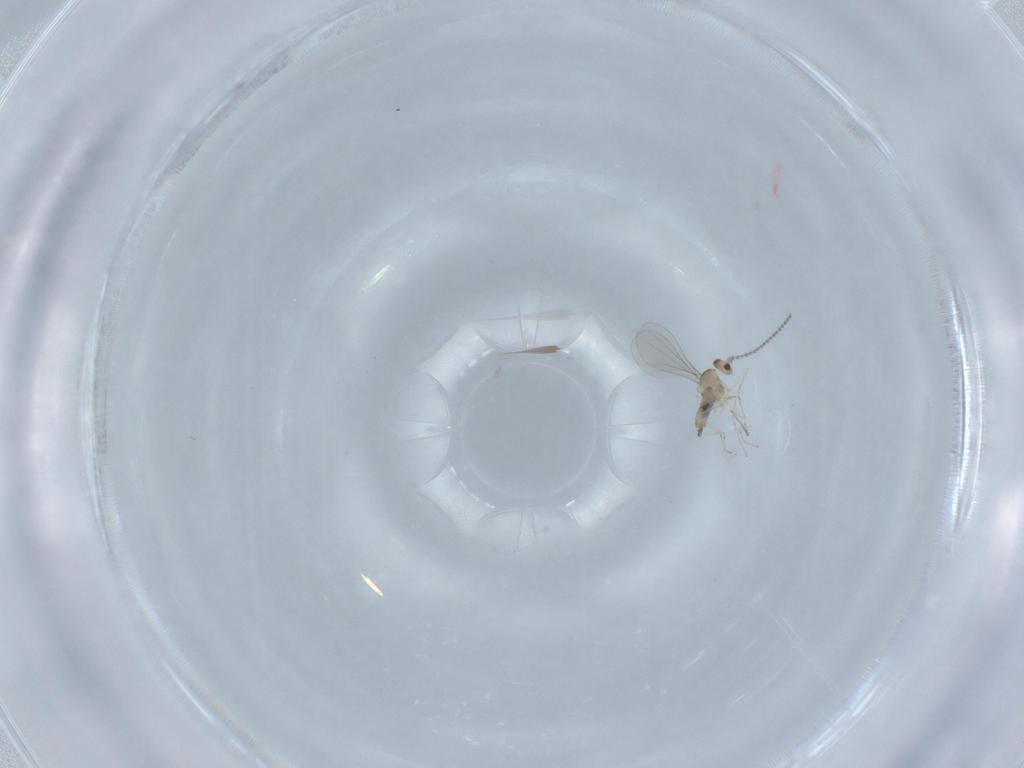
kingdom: Animalia
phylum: Arthropoda
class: Insecta
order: Diptera
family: Cecidomyiidae
